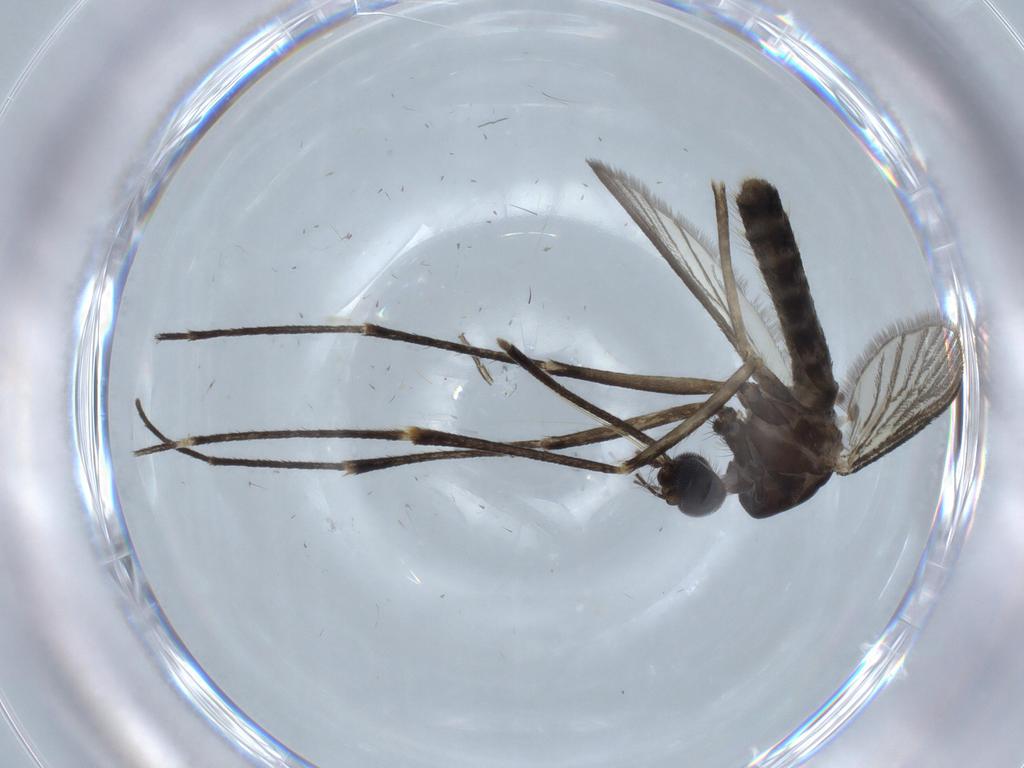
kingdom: Animalia
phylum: Arthropoda
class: Insecta
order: Diptera
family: Cecidomyiidae
